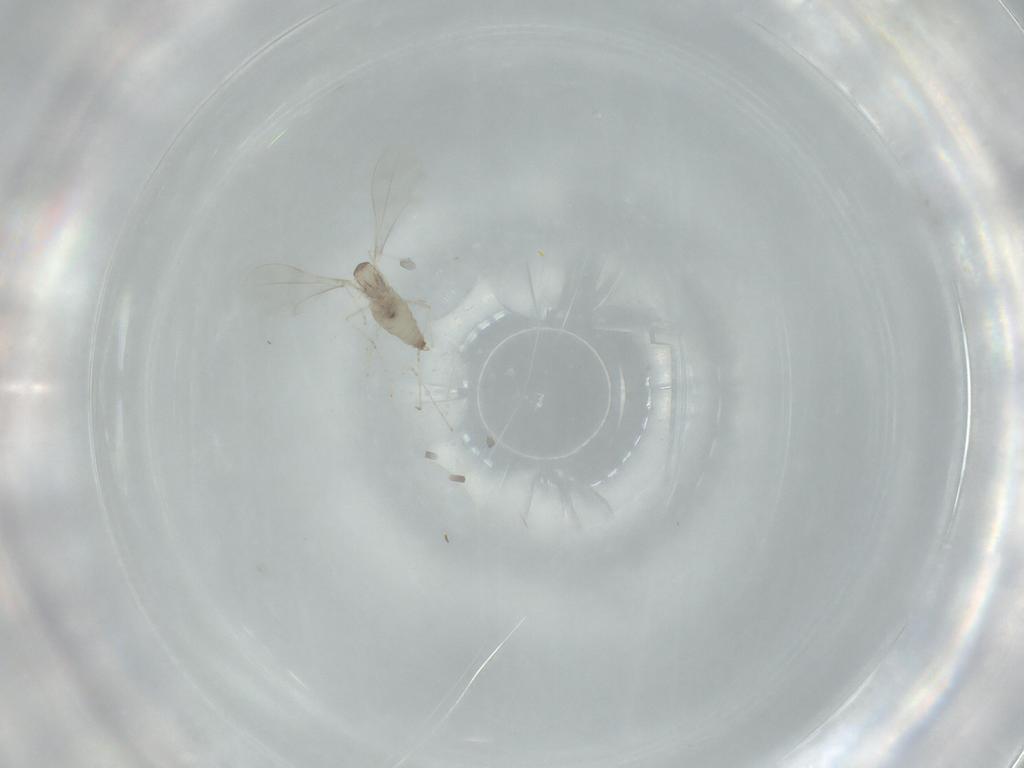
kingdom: Animalia
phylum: Arthropoda
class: Insecta
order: Diptera
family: Cecidomyiidae
